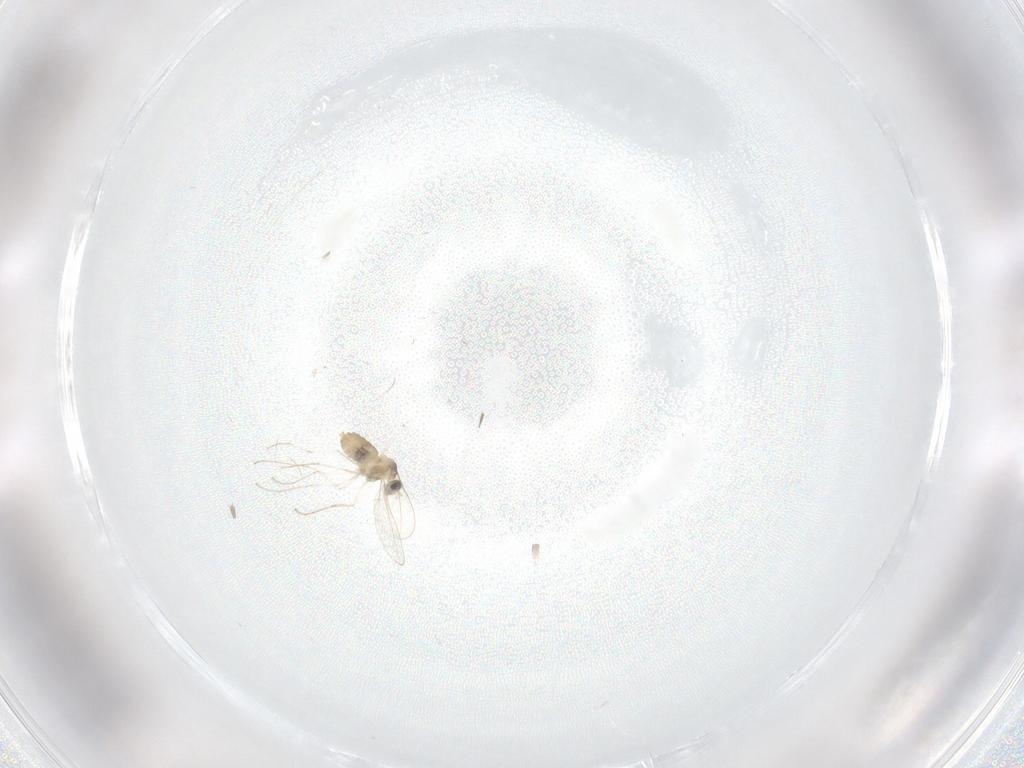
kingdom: Animalia
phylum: Arthropoda
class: Insecta
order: Diptera
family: Cecidomyiidae
